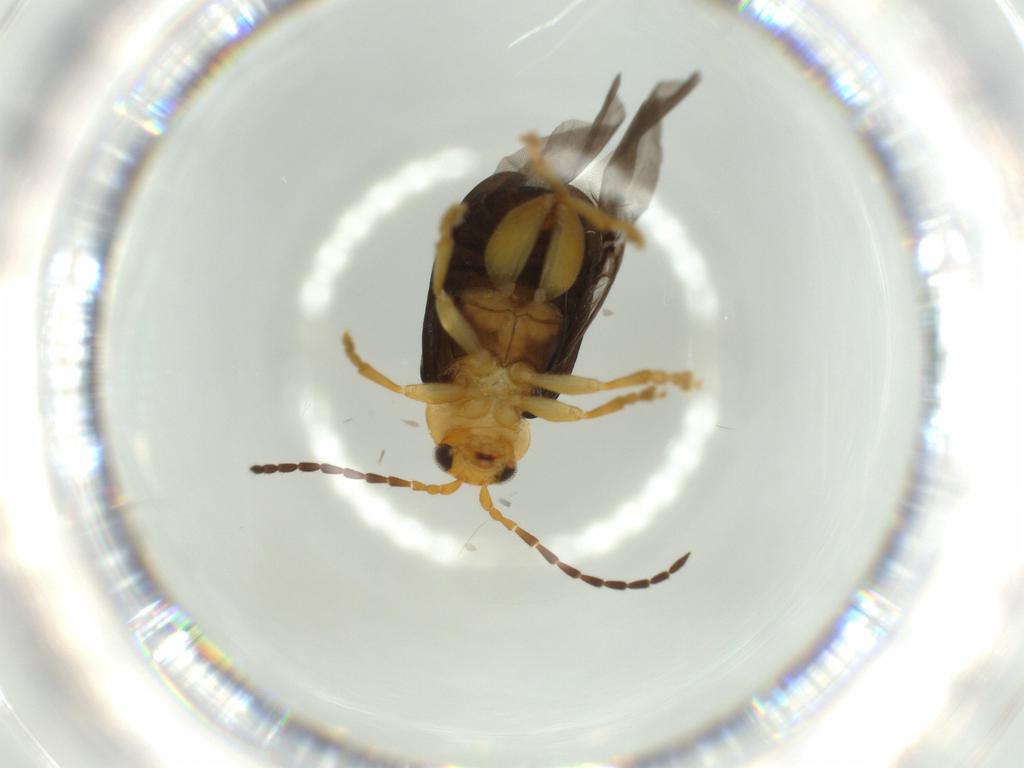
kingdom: Animalia
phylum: Arthropoda
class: Insecta
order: Coleoptera
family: Chrysomelidae
